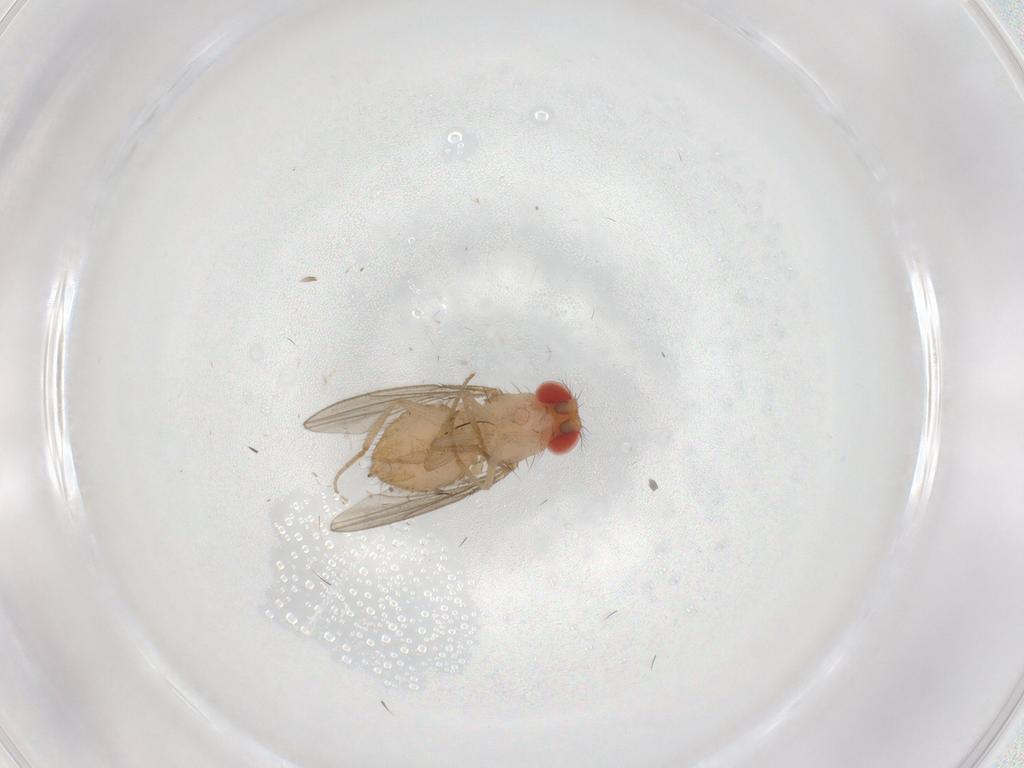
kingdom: Animalia
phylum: Arthropoda
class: Insecta
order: Diptera
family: Drosophilidae
